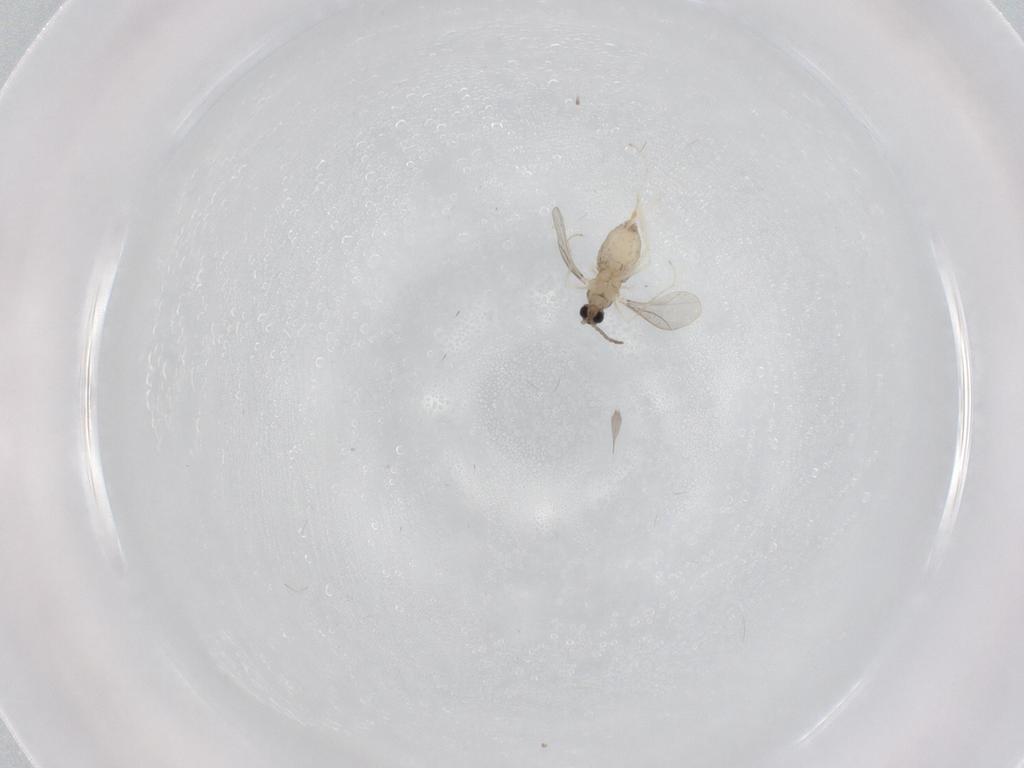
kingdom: Animalia
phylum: Arthropoda
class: Insecta
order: Diptera
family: Cecidomyiidae
